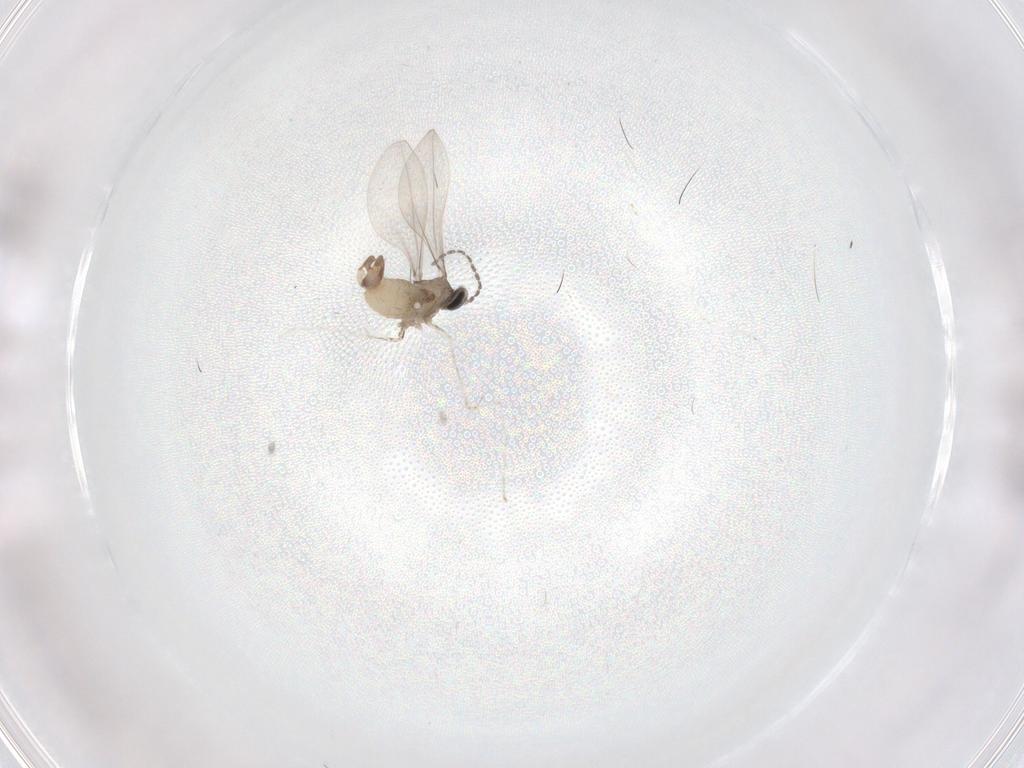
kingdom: Animalia
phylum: Arthropoda
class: Insecta
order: Diptera
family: Cecidomyiidae
